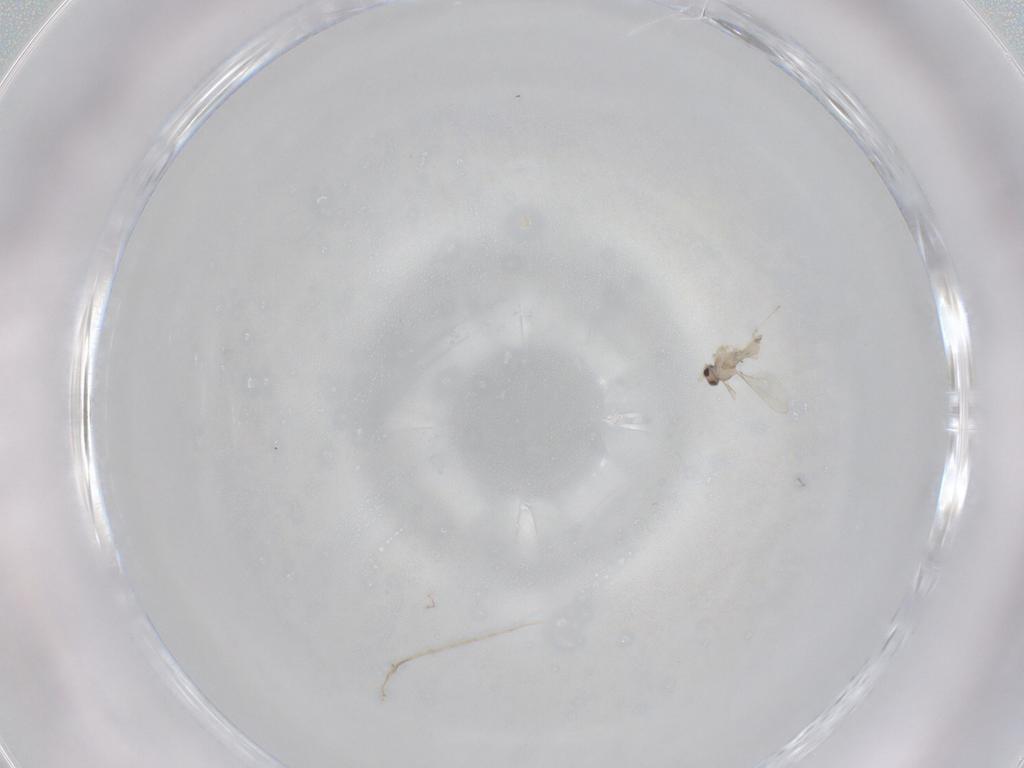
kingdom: Animalia
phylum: Arthropoda
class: Insecta
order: Diptera
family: Cecidomyiidae
